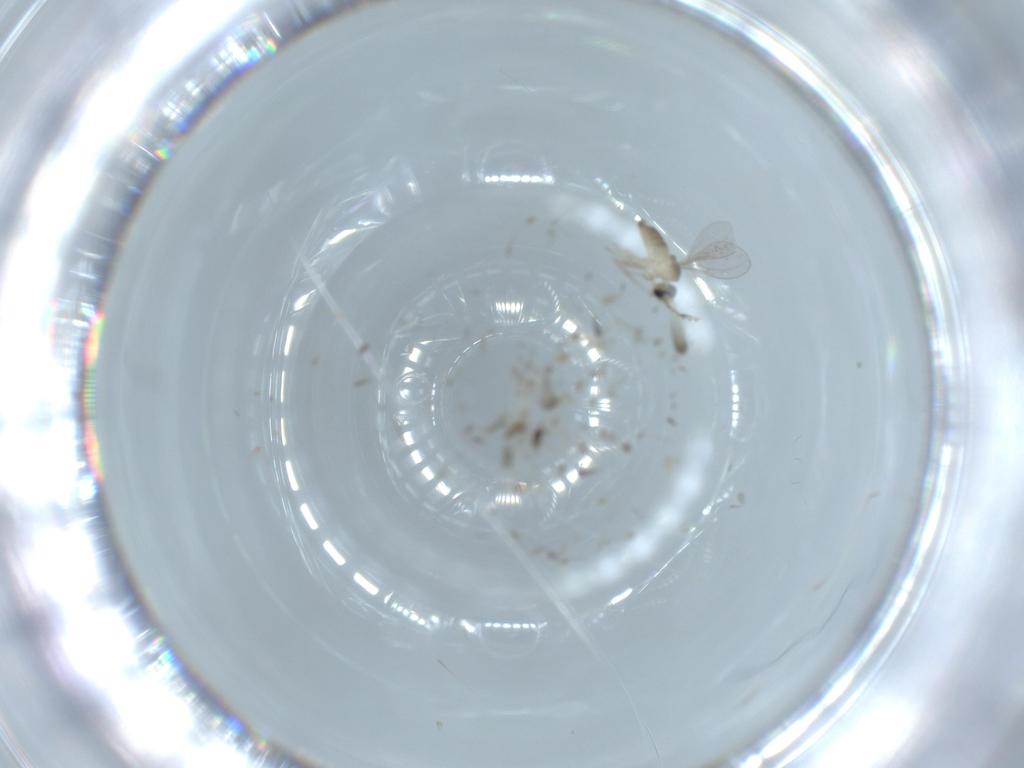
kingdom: Animalia
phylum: Arthropoda
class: Insecta
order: Diptera
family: Cecidomyiidae
